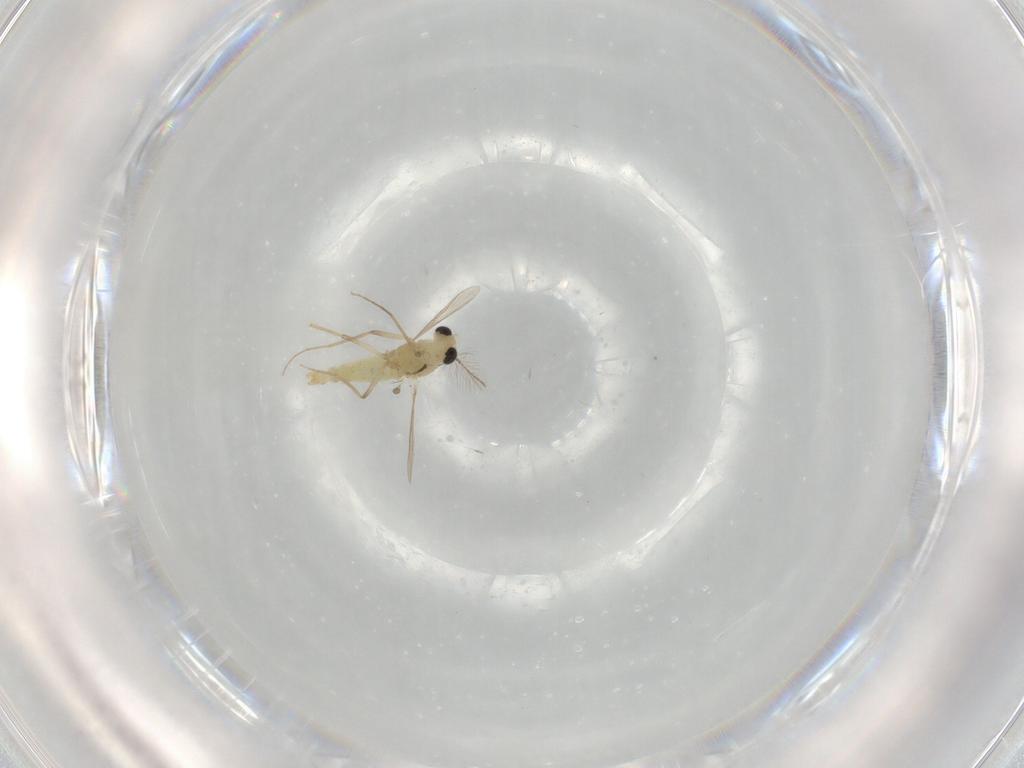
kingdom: Animalia
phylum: Arthropoda
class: Insecta
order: Diptera
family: Chironomidae
